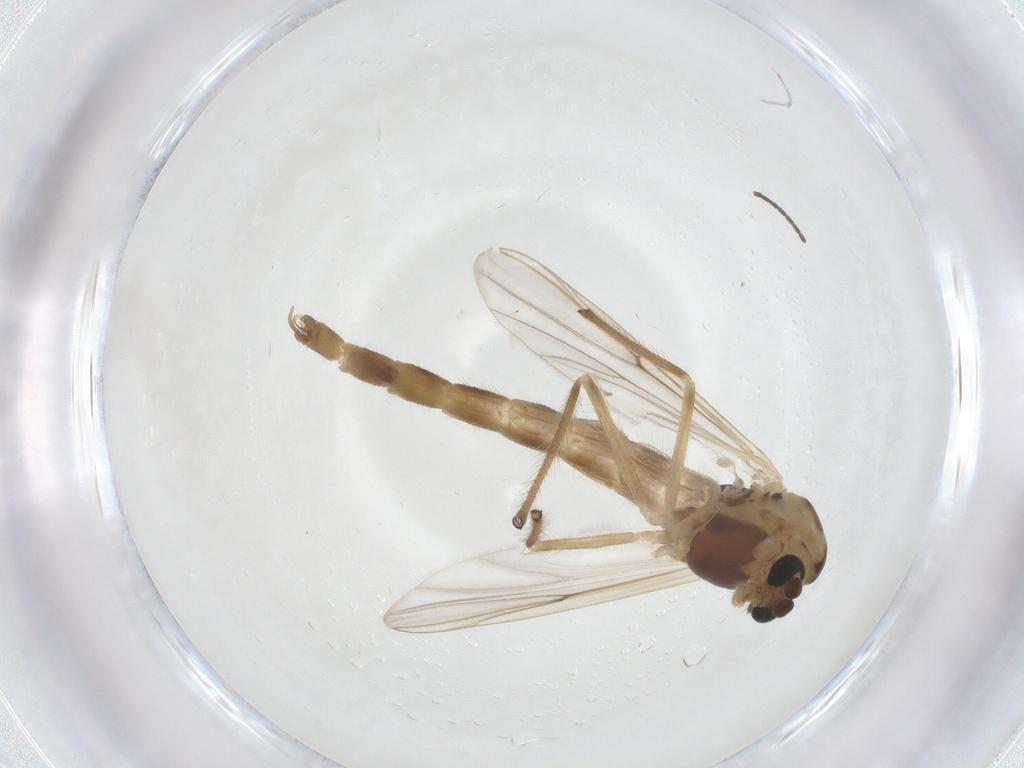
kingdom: Animalia
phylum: Arthropoda
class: Insecta
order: Diptera
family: Chironomidae
